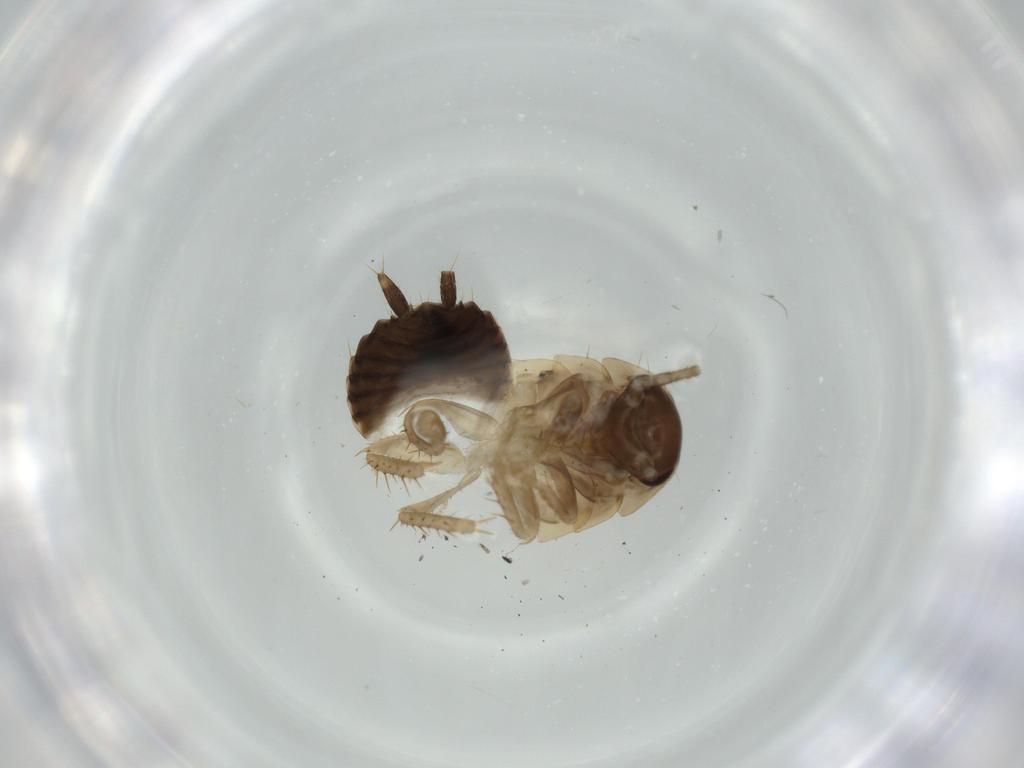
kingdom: Animalia
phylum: Arthropoda
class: Insecta
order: Blattodea
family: Ectobiidae
